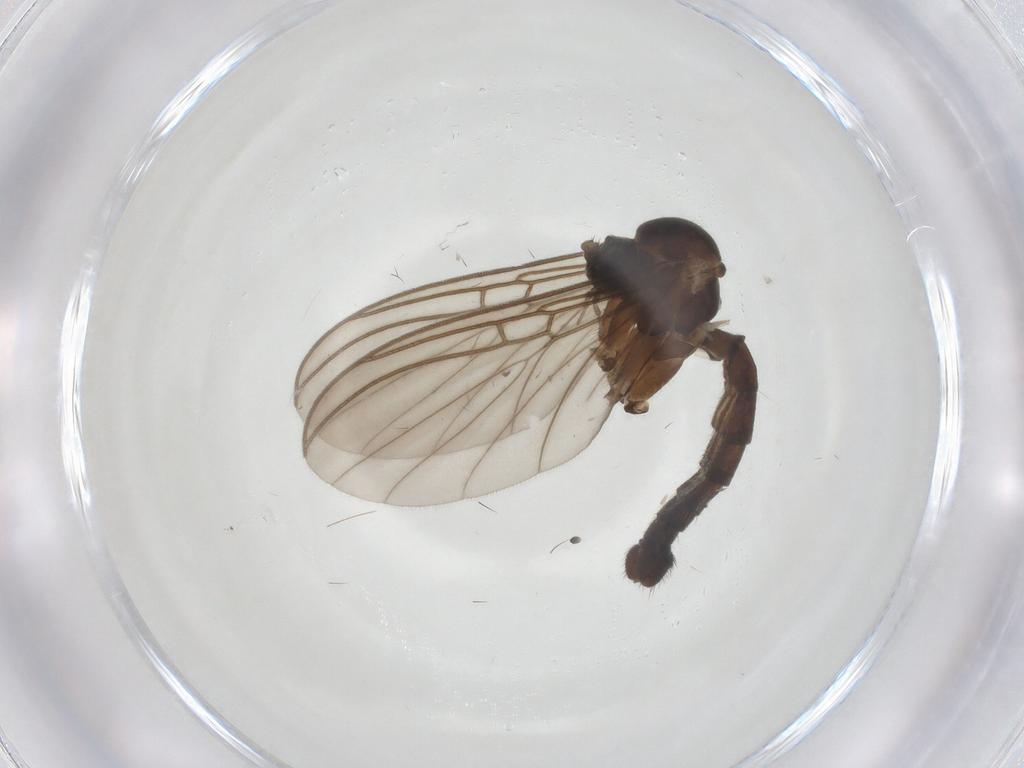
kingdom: Animalia
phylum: Arthropoda
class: Insecta
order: Diptera
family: Mycetophilidae
